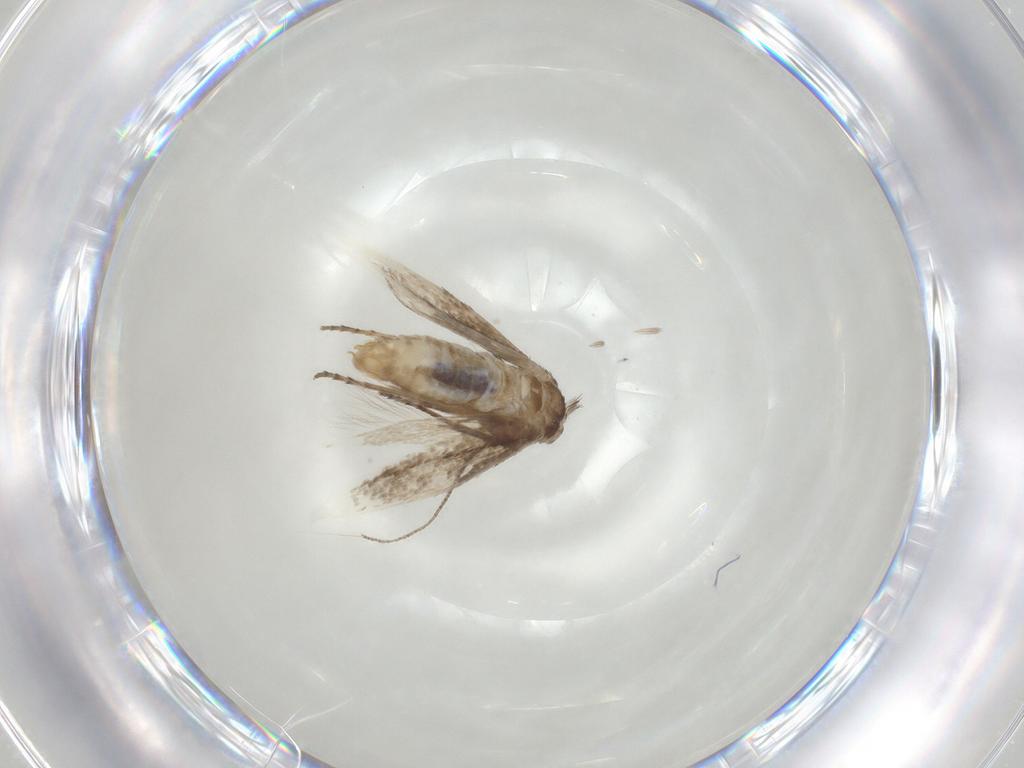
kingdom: Animalia
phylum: Arthropoda
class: Insecta
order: Lepidoptera
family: Bucculatricidae
